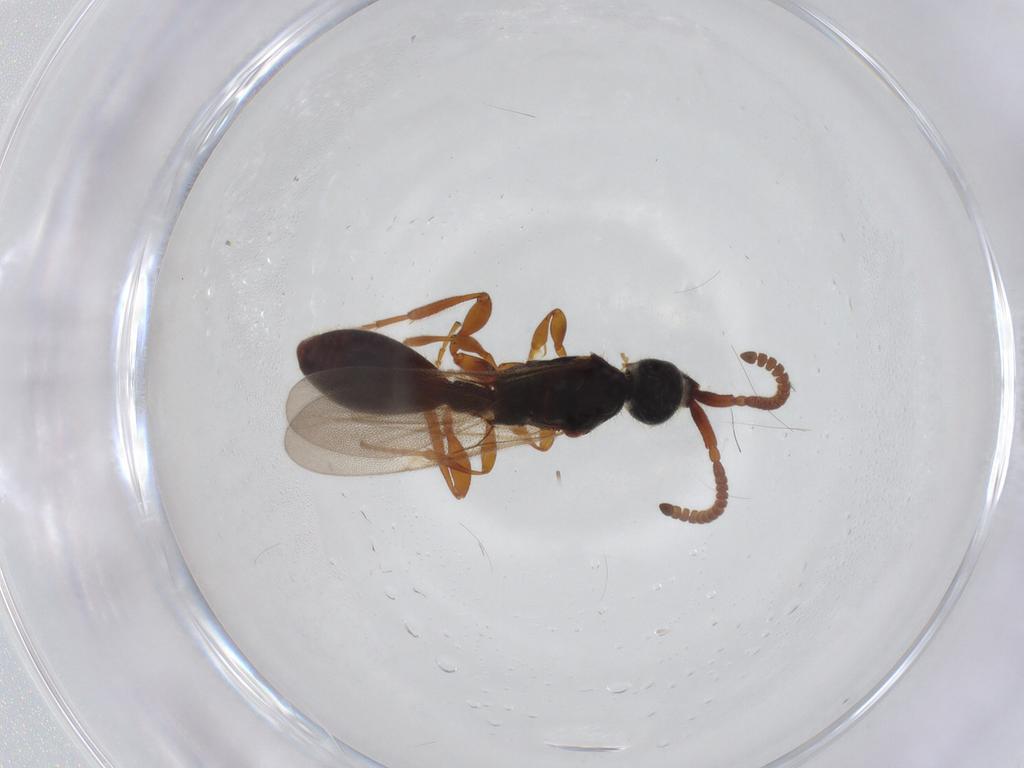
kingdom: Animalia
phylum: Arthropoda
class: Insecta
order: Hymenoptera
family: Diapriidae
